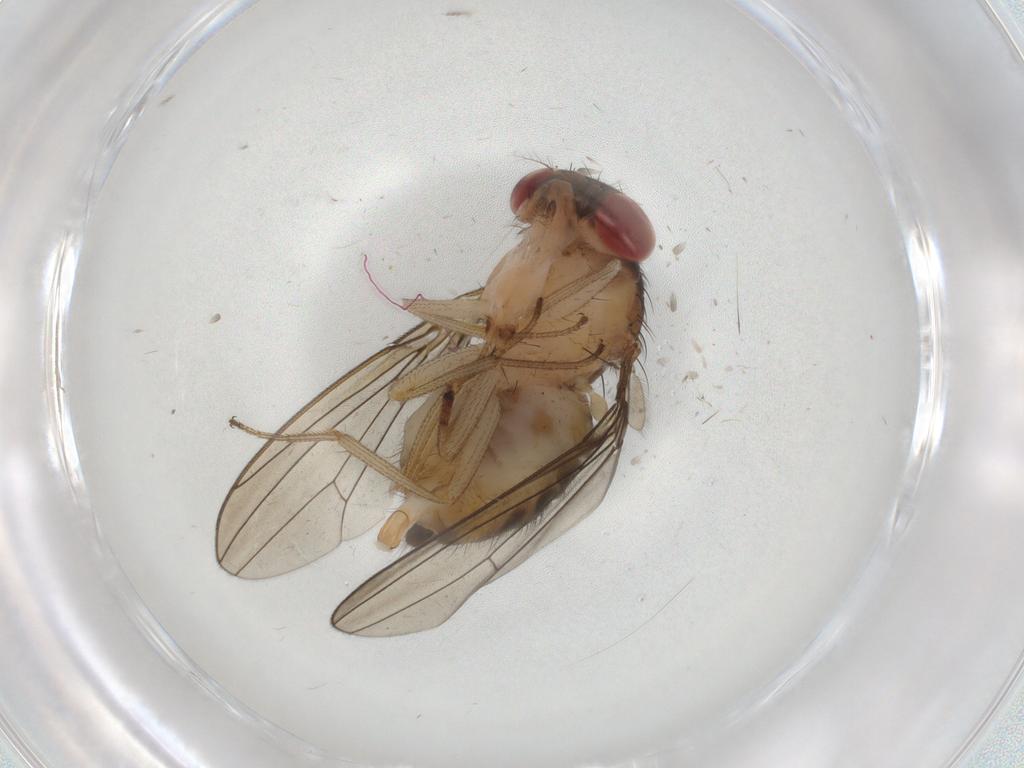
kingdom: Animalia
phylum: Arthropoda
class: Insecta
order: Diptera
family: Drosophilidae
